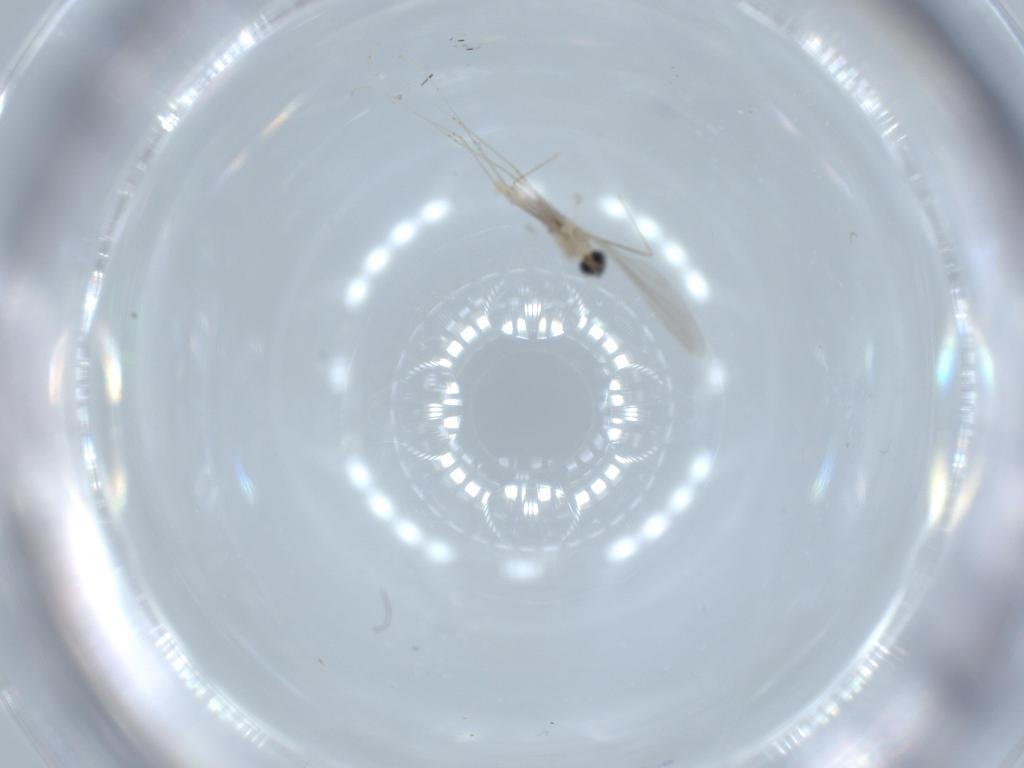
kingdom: Animalia
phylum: Arthropoda
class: Insecta
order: Diptera
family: Cecidomyiidae
